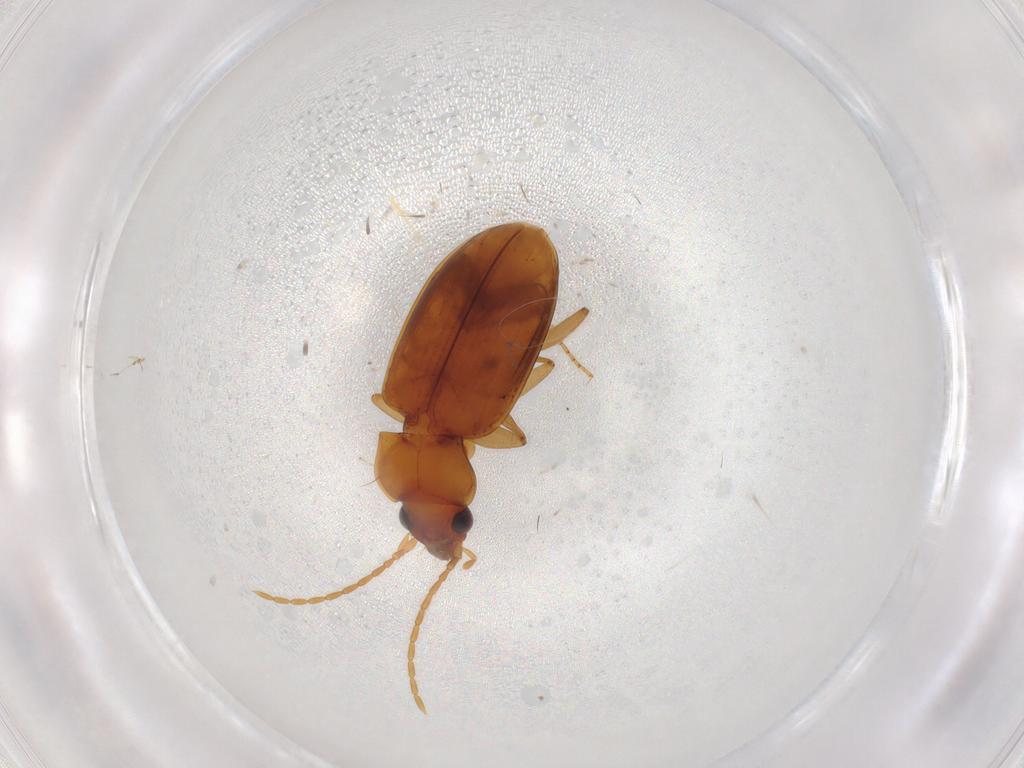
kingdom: Animalia
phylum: Arthropoda
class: Insecta
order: Coleoptera
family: Carabidae
